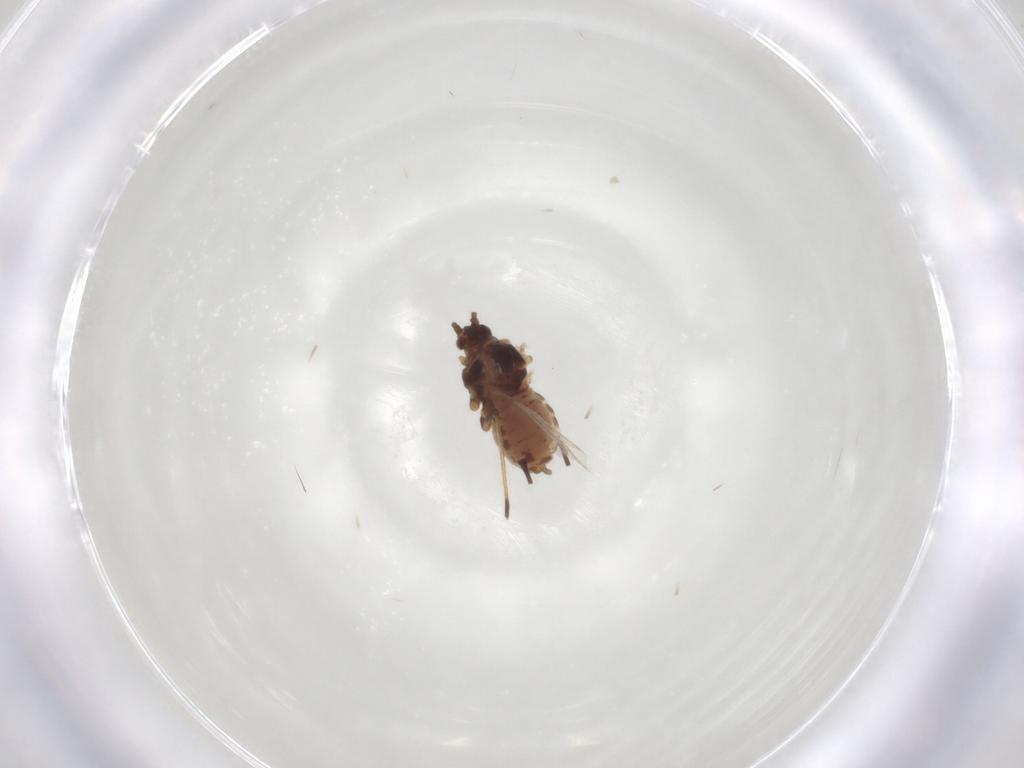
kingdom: Animalia
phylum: Arthropoda
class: Insecta
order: Hemiptera
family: Aphididae
